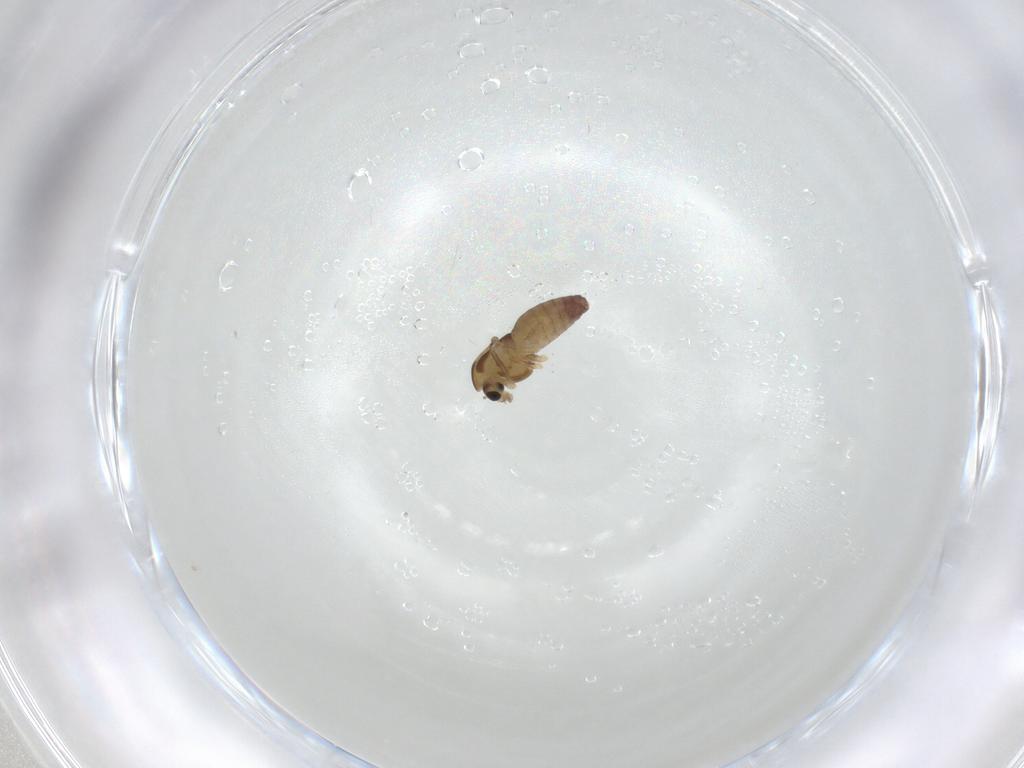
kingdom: Animalia
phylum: Arthropoda
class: Insecta
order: Diptera
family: Chironomidae
